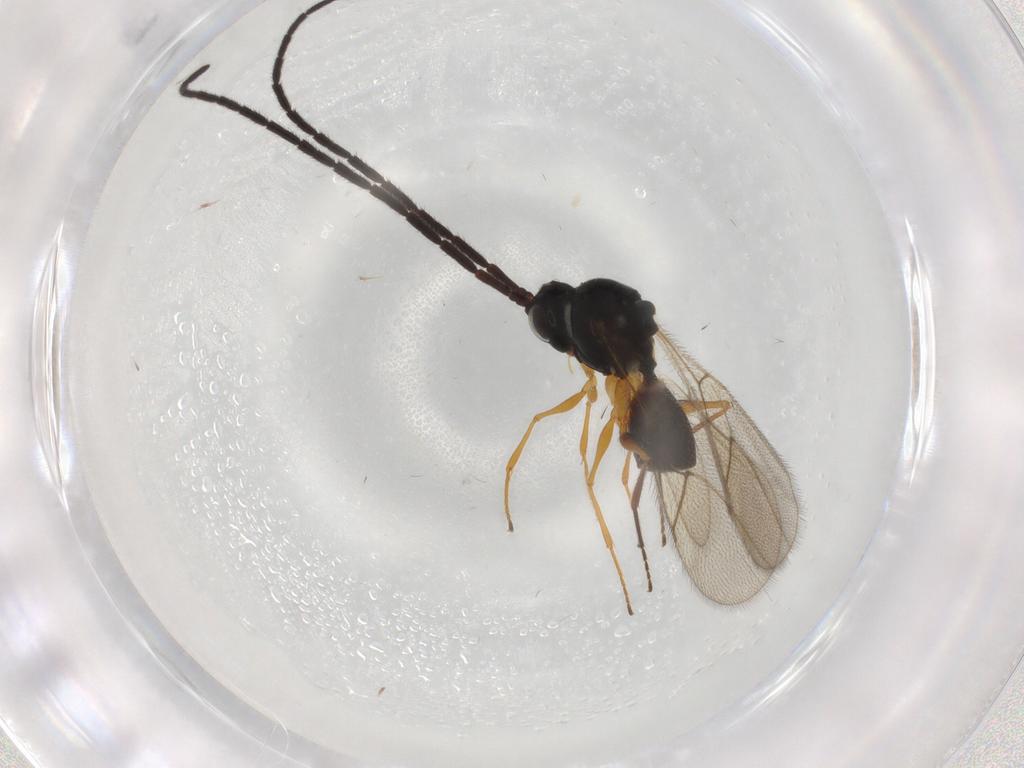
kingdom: Animalia
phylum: Arthropoda
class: Insecta
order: Hymenoptera
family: Figitidae
